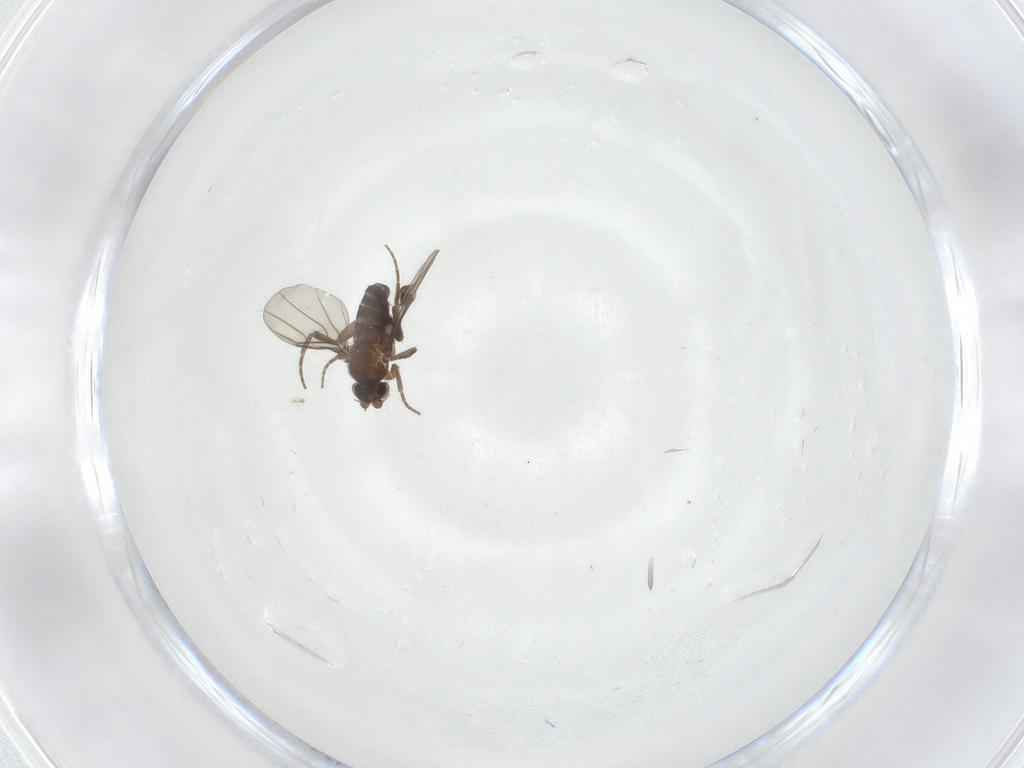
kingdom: Animalia
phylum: Arthropoda
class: Insecta
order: Diptera
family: Phoridae
